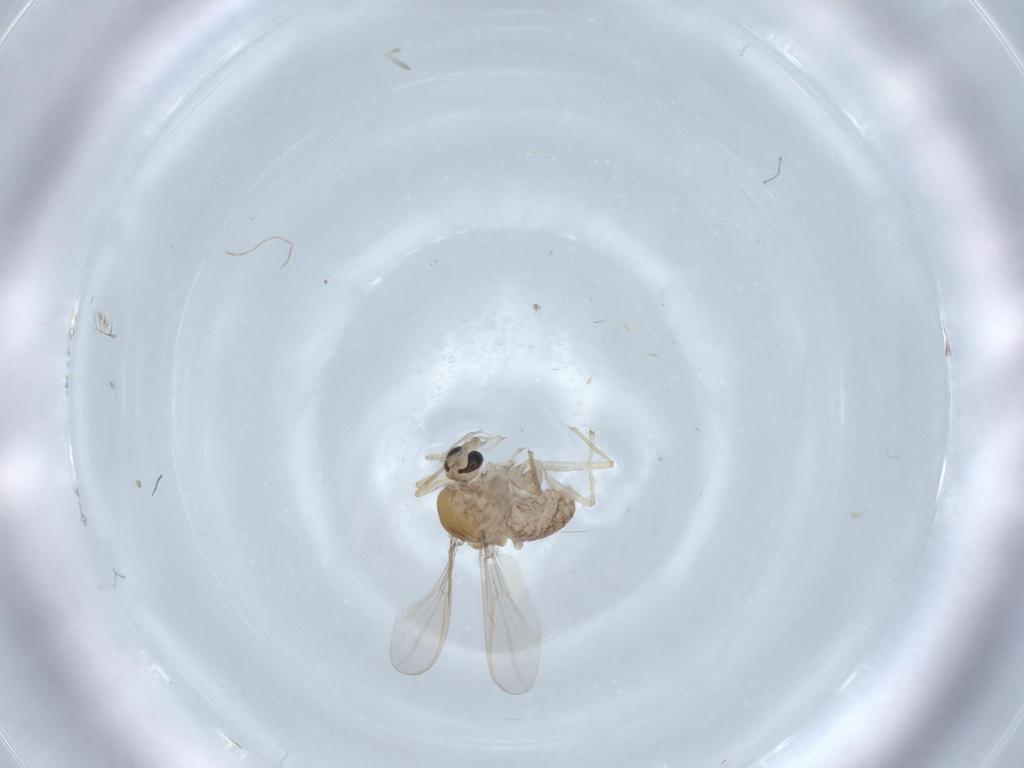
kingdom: Animalia
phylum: Arthropoda
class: Insecta
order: Diptera
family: Chironomidae
